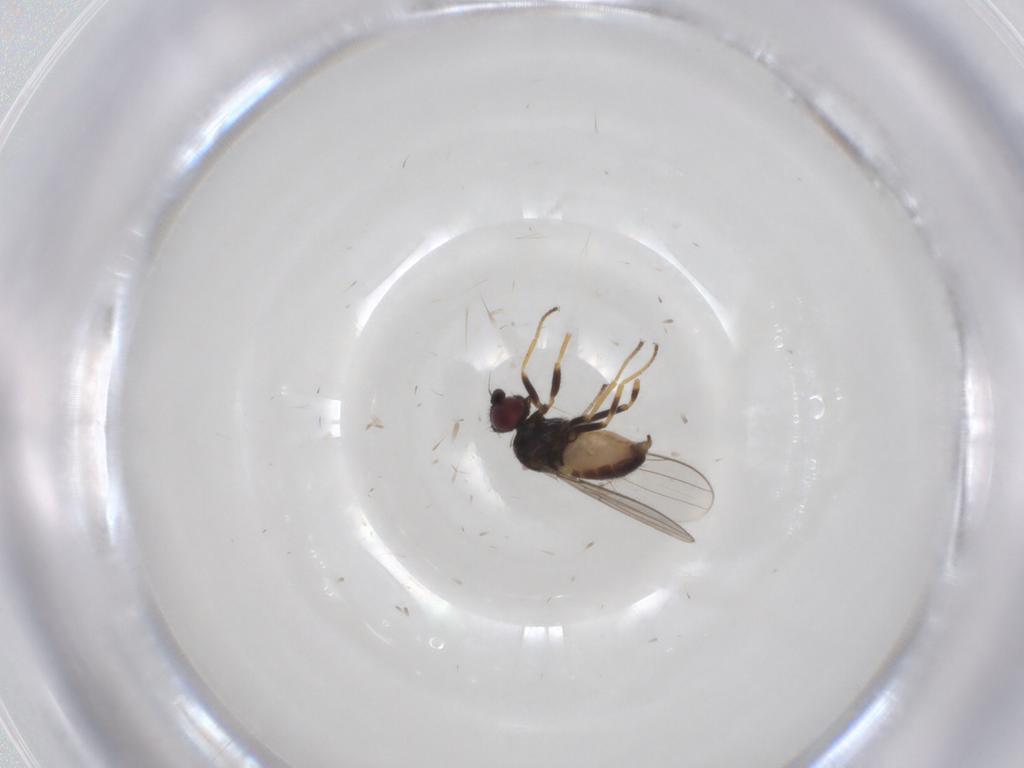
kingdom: Animalia
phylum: Arthropoda
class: Insecta
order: Diptera
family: Chloropidae
